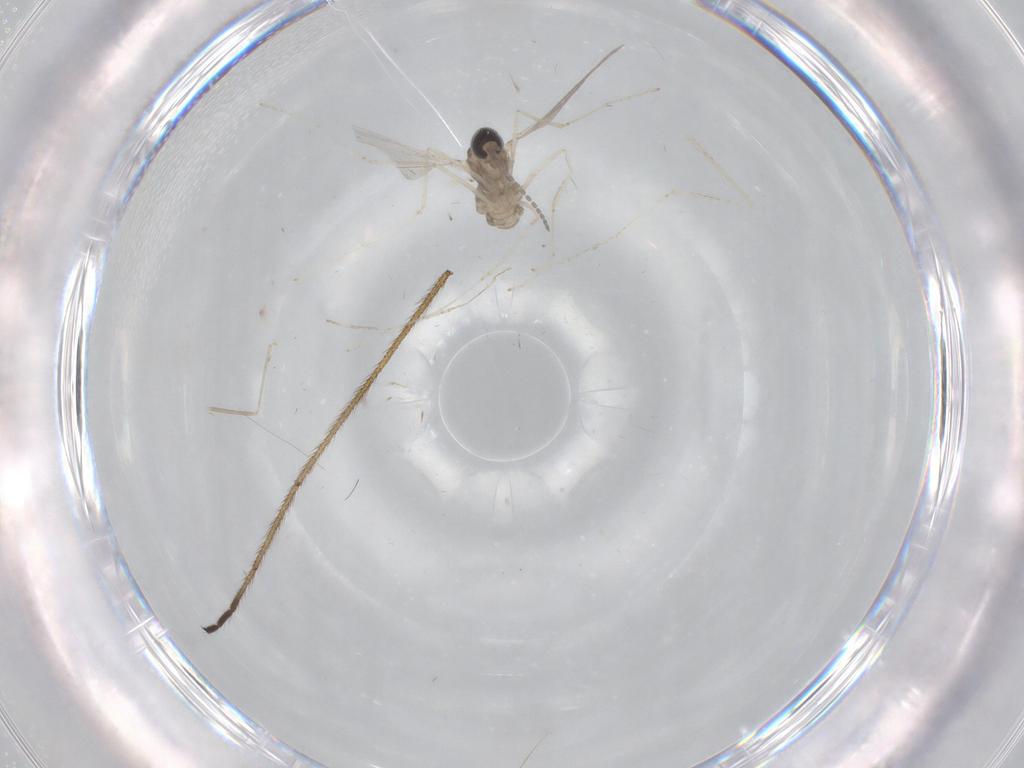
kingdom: Animalia
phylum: Arthropoda
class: Insecta
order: Diptera
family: Cecidomyiidae
